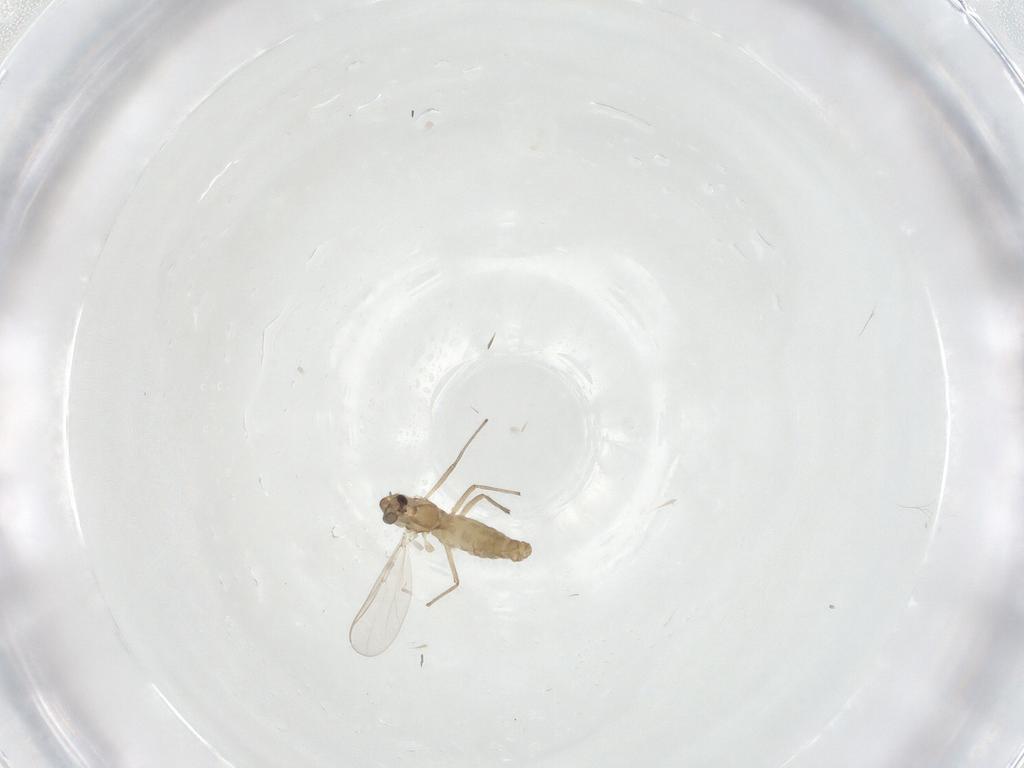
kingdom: Animalia
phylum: Arthropoda
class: Insecta
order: Diptera
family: Chironomidae
